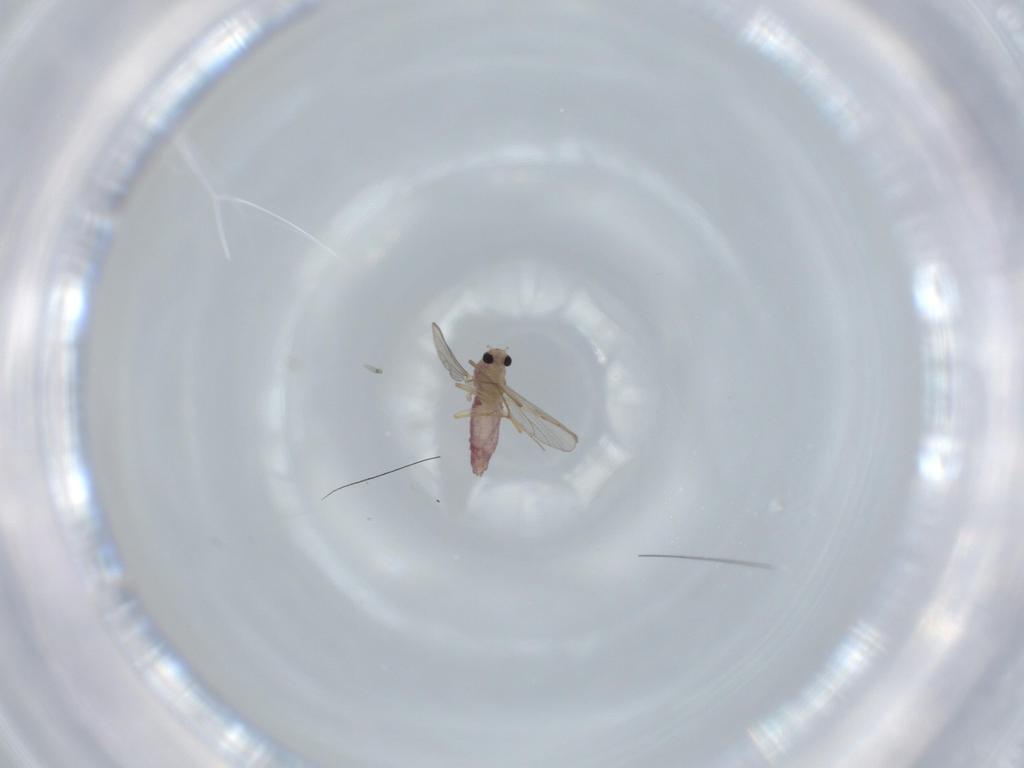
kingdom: Animalia
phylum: Arthropoda
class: Insecta
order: Diptera
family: Chironomidae
